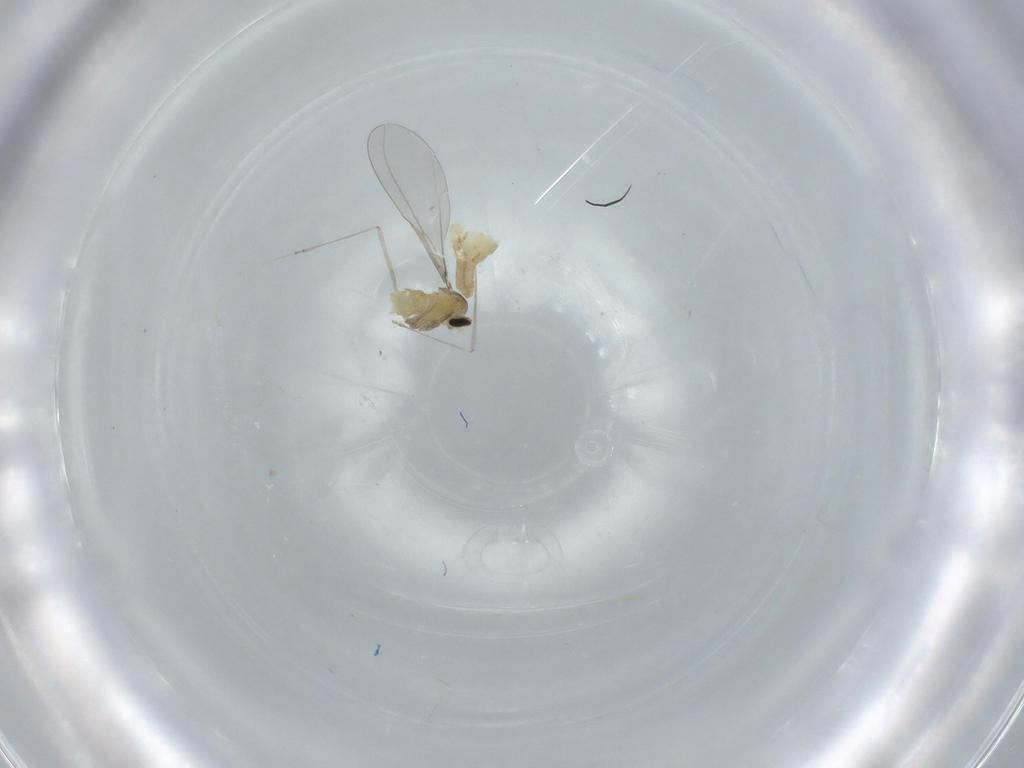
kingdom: Animalia
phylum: Arthropoda
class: Insecta
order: Diptera
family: Cecidomyiidae
